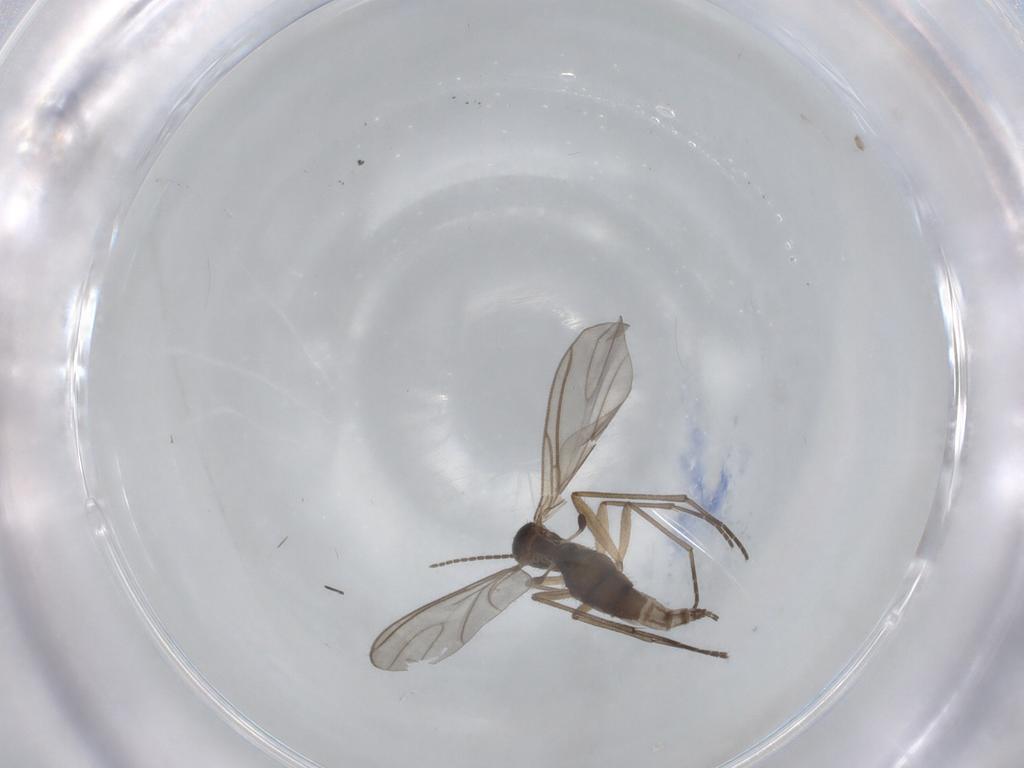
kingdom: Animalia
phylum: Arthropoda
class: Insecta
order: Diptera
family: Sciaridae
